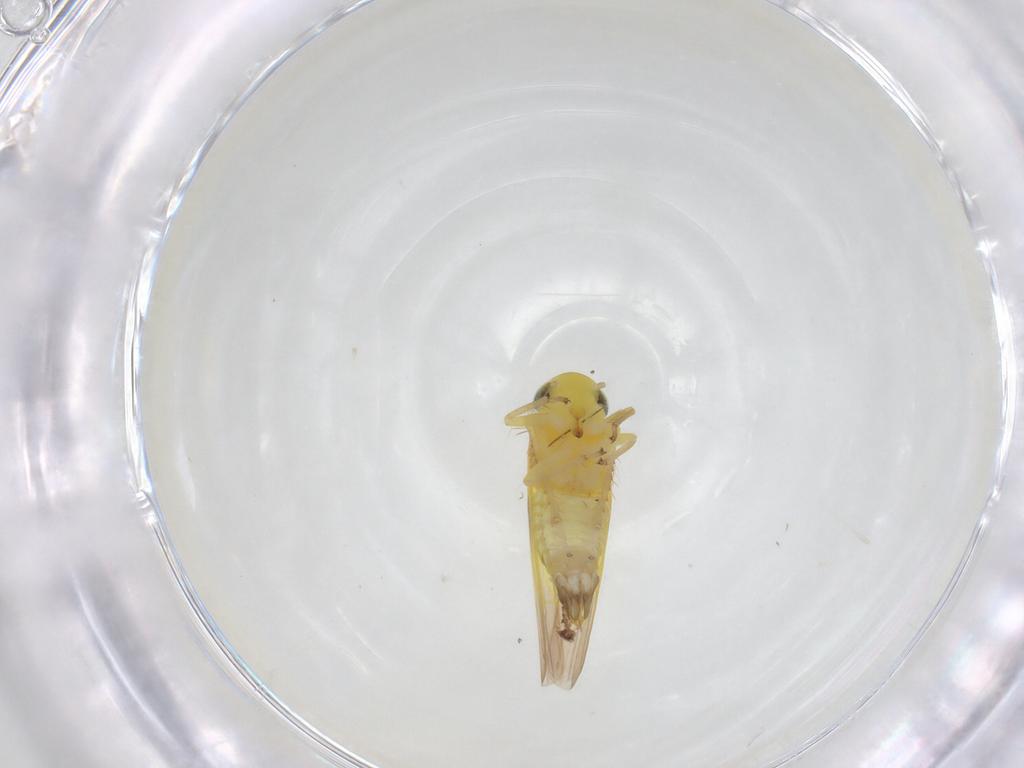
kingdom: Animalia
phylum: Arthropoda
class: Insecta
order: Hemiptera
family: Cicadellidae
